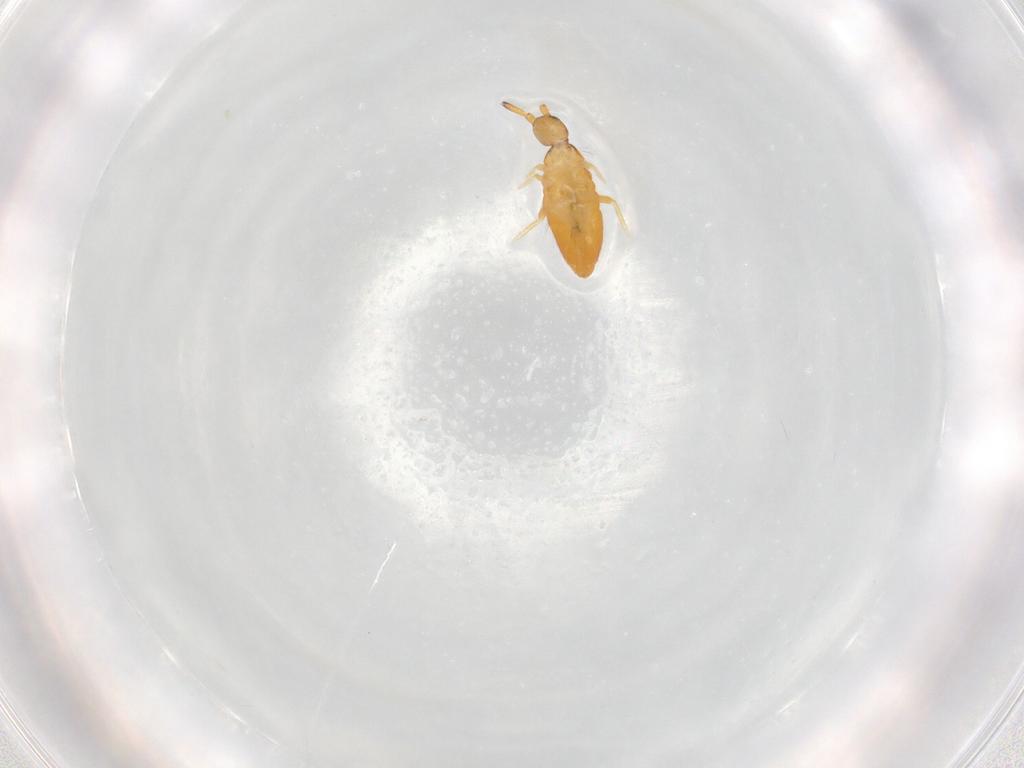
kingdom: Animalia
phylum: Arthropoda
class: Collembola
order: Entomobryomorpha
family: Entomobryidae
